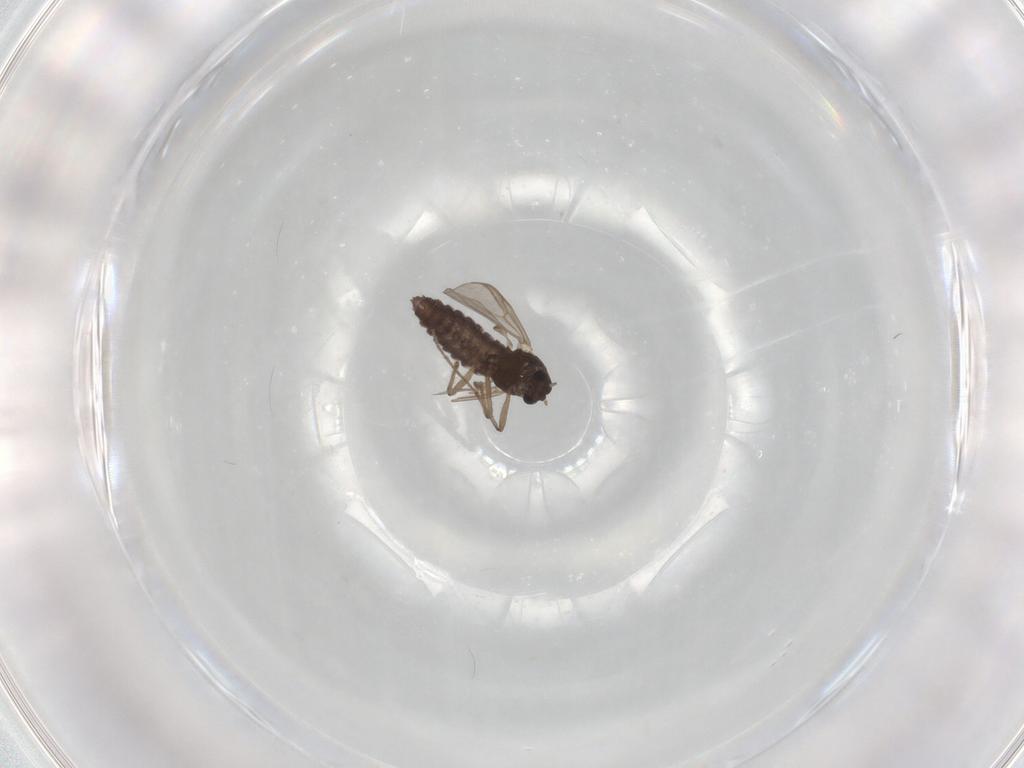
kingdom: Animalia
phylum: Arthropoda
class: Insecta
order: Diptera
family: Chironomidae
